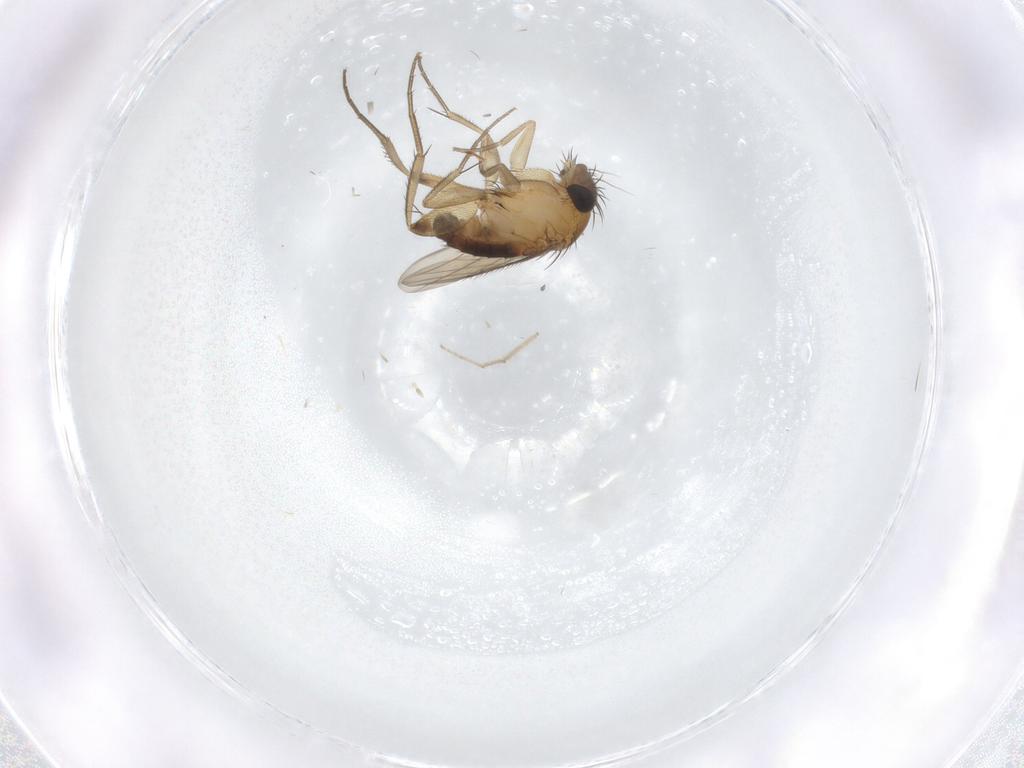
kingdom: Animalia
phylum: Arthropoda
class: Insecta
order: Diptera
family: Phoridae
